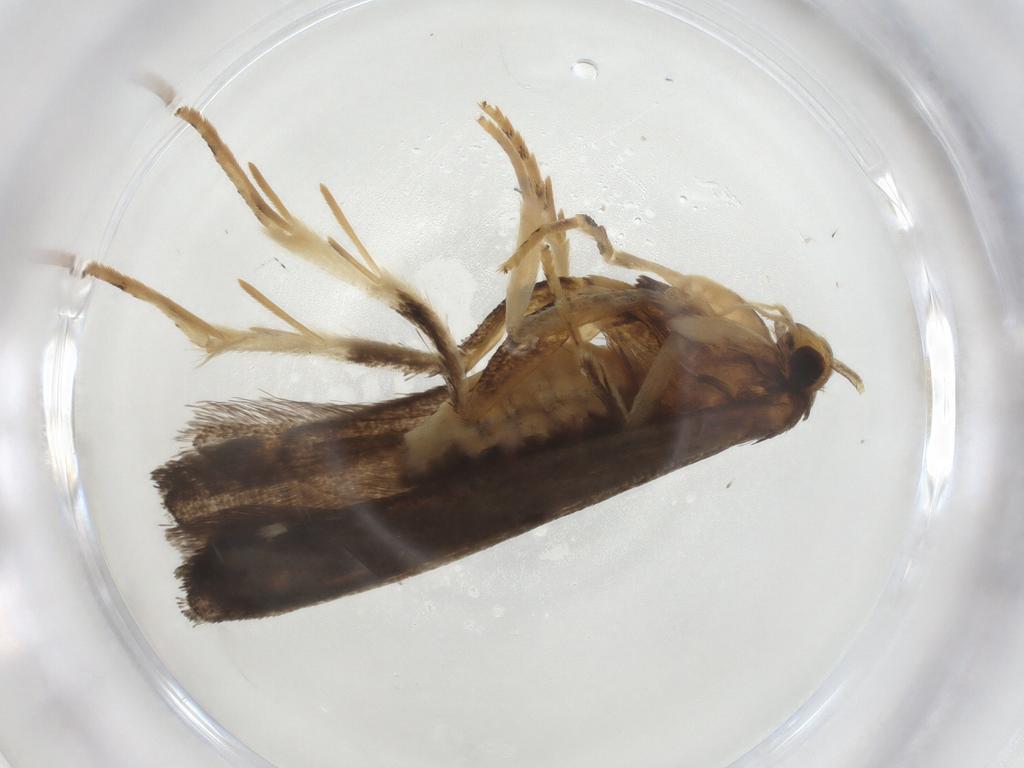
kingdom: Animalia
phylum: Arthropoda
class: Insecta
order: Lepidoptera
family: Lecithoceridae
